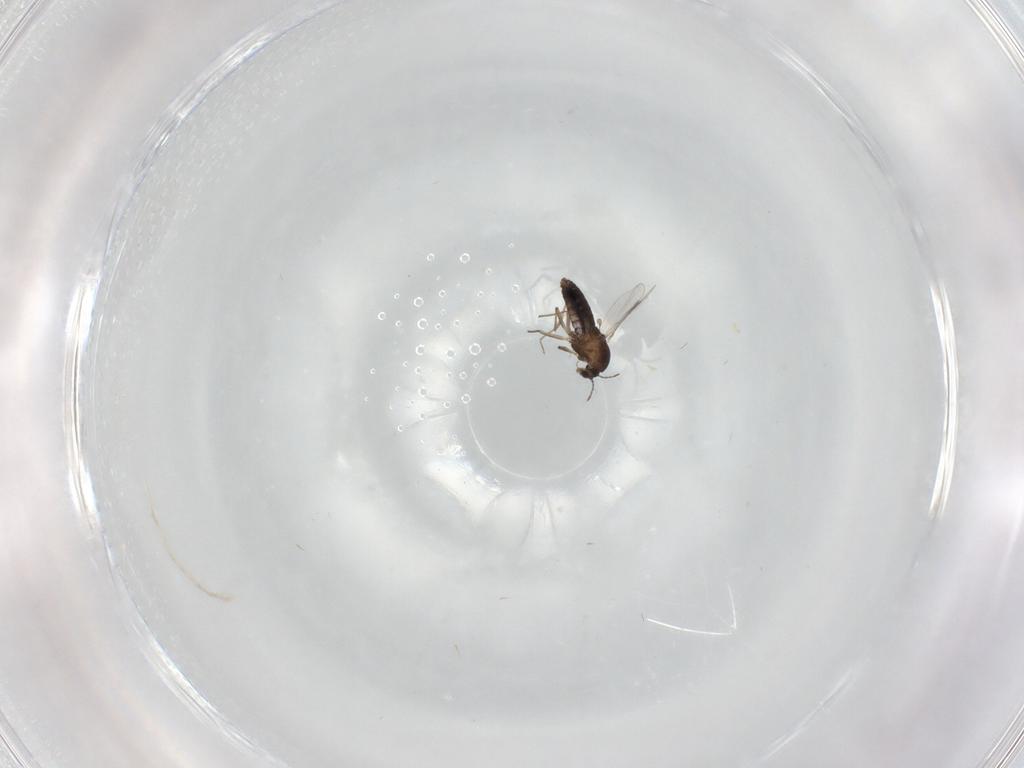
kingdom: Animalia
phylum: Arthropoda
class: Insecta
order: Diptera
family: Chironomidae
